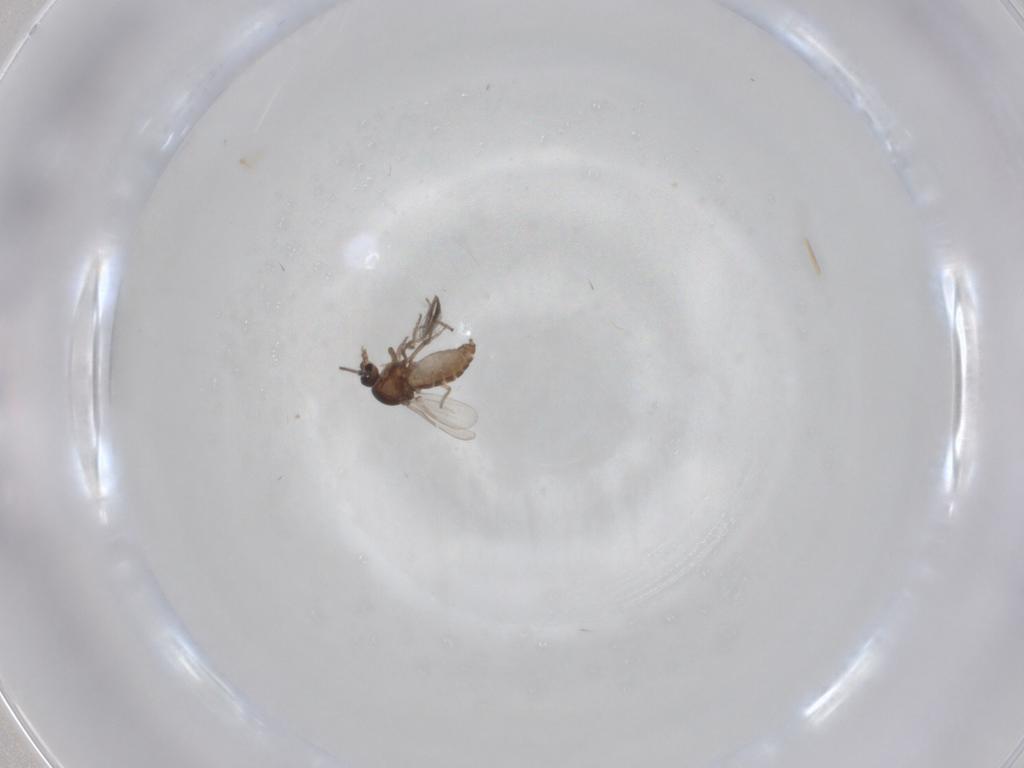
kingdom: Animalia
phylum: Arthropoda
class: Insecta
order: Diptera
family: Ceratopogonidae
